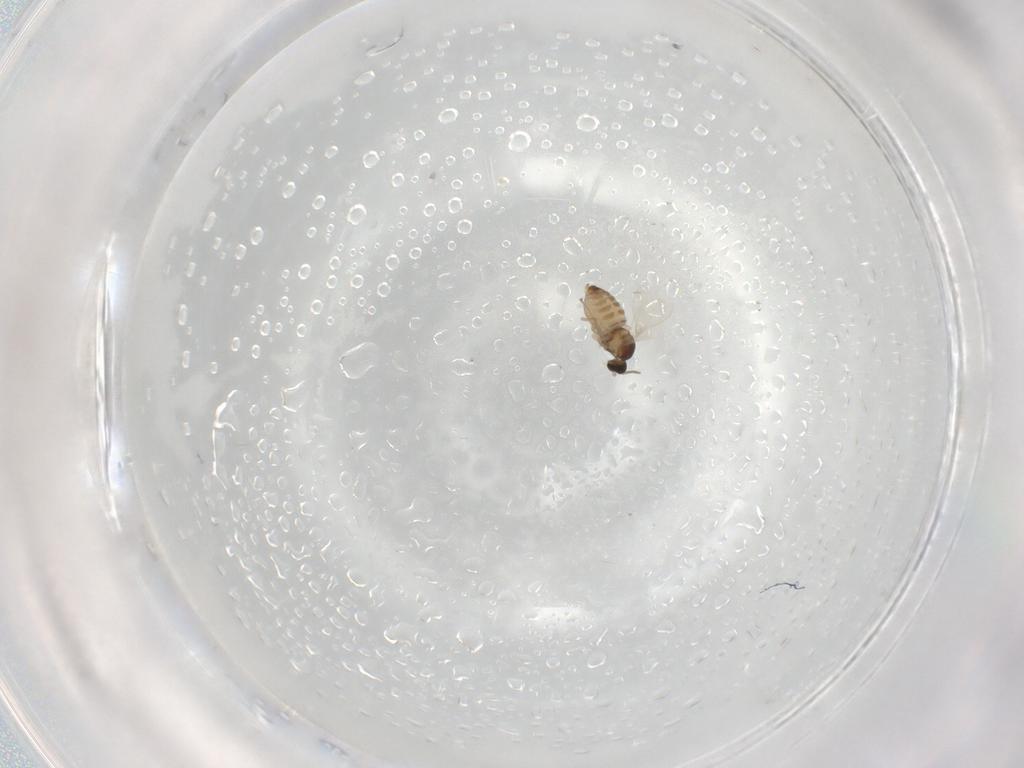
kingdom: Animalia
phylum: Arthropoda
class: Insecta
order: Diptera
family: Cecidomyiidae
